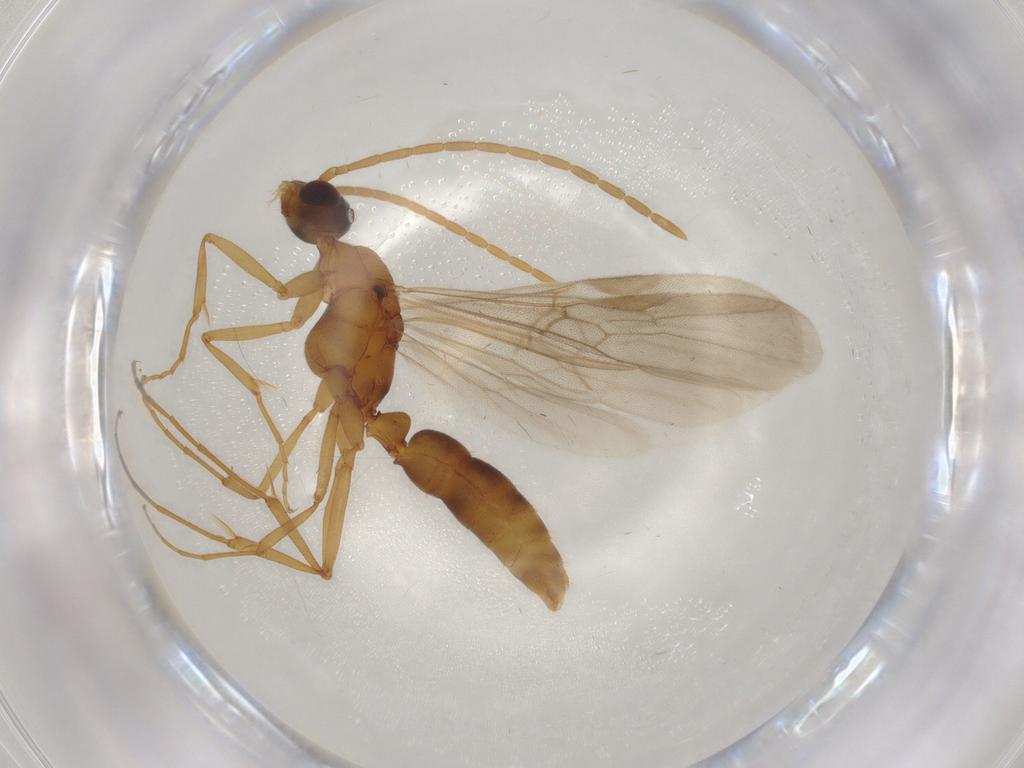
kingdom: Animalia
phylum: Arthropoda
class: Insecta
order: Hymenoptera
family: Formicidae
